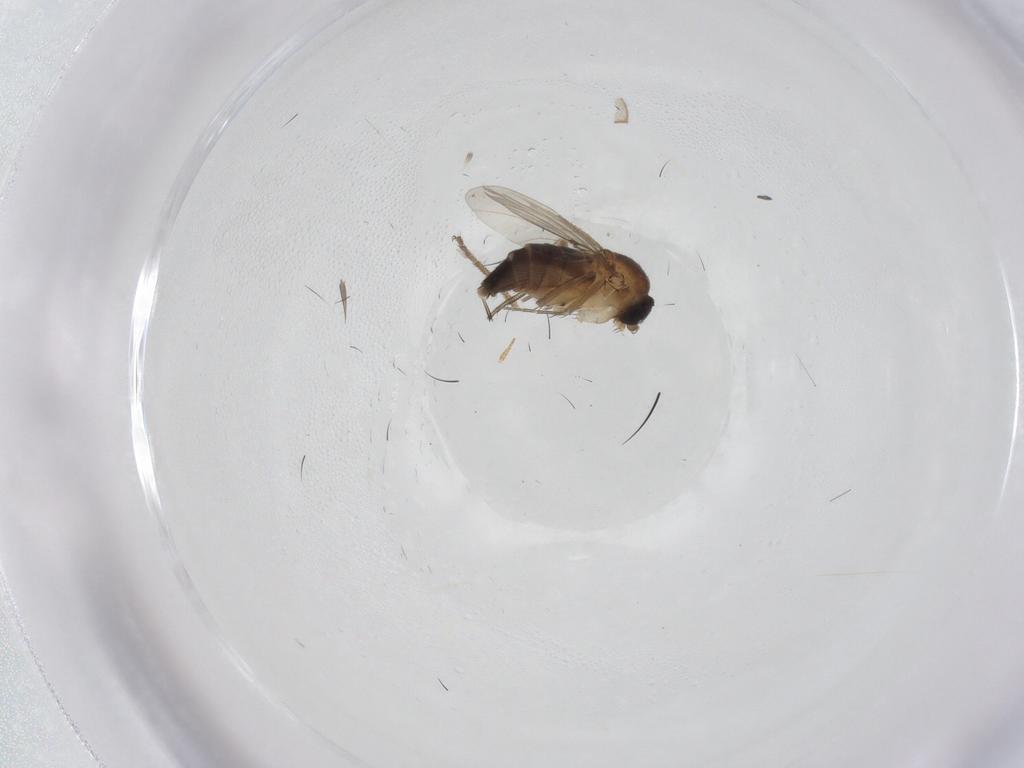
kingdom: Animalia
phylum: Arthropoda
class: Insecta
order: Diptera
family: Phoridae
